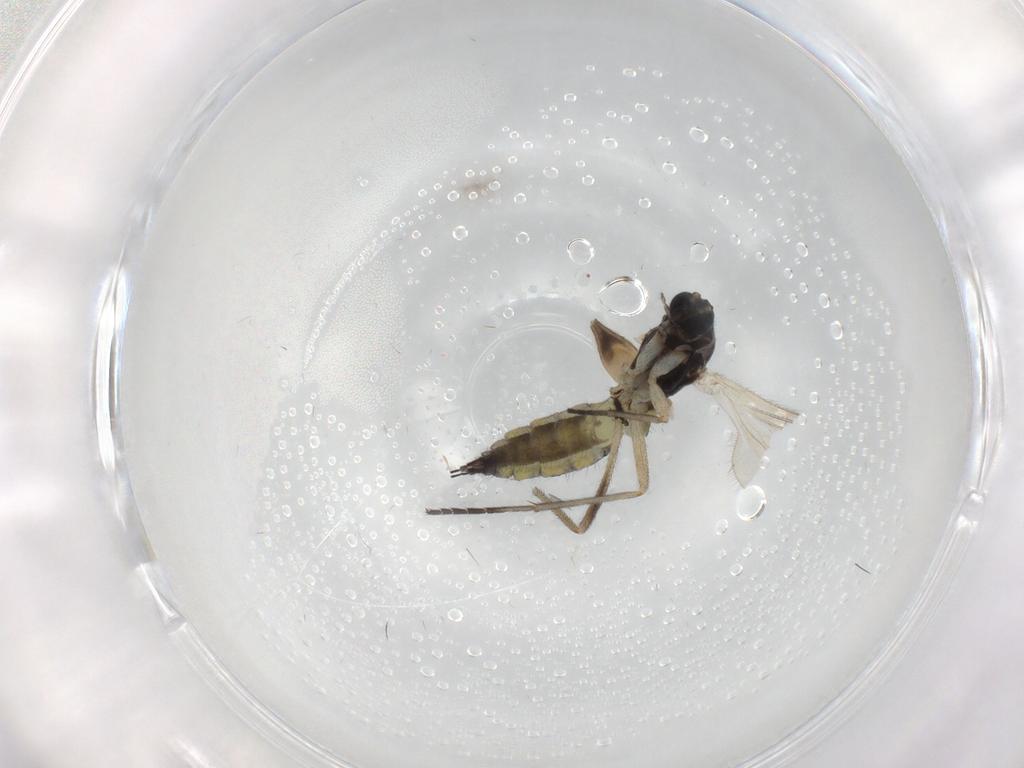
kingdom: Animalia
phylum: Arthropoda
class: Insecta
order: Diptera
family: Sciaridae
